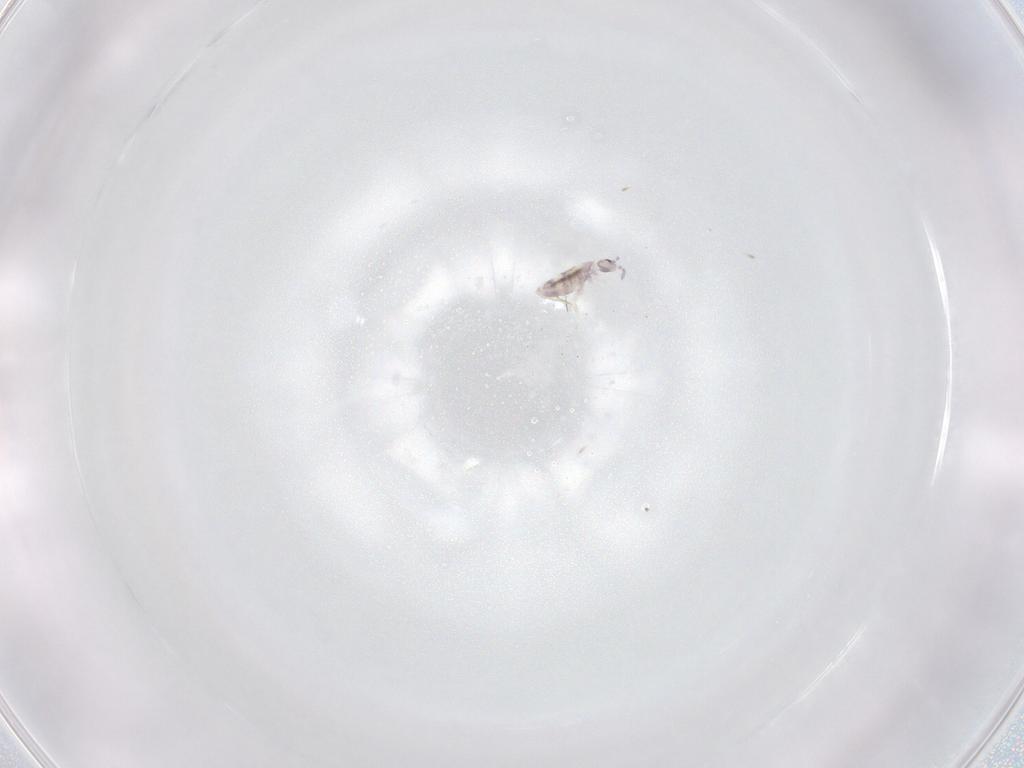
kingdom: Animalia
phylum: Arthropoda
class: Collembola
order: Entomobryomorpha
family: Entomobryidae
